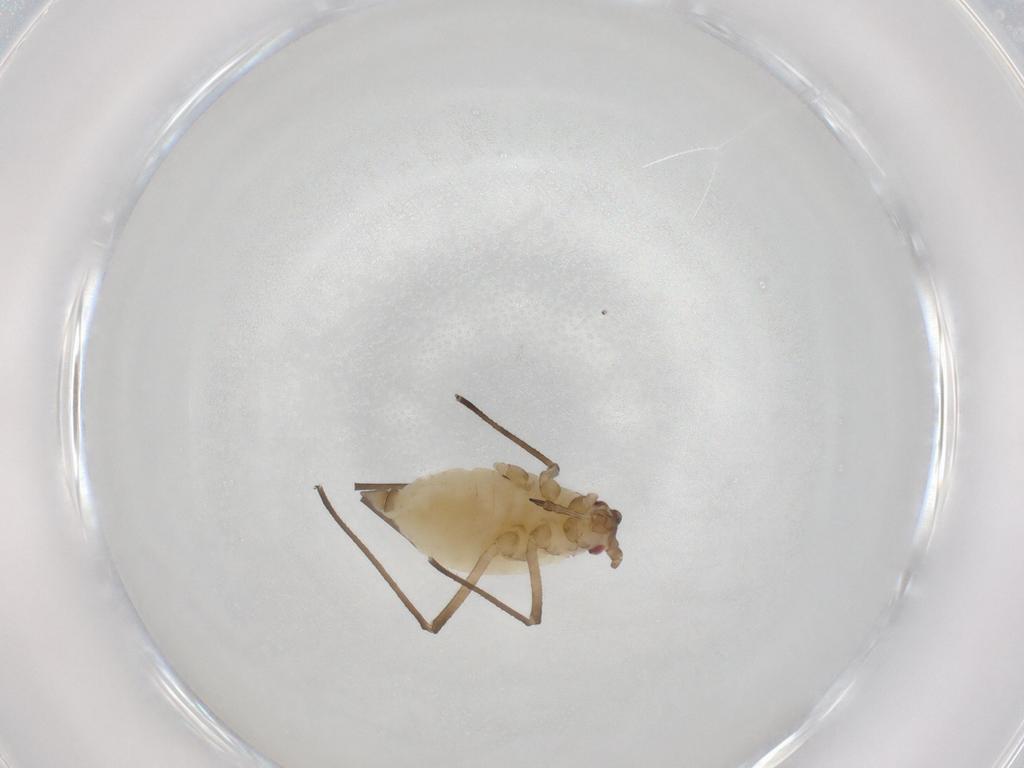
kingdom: Animalia
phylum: Arthropoda
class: Insecta
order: Hemiptera
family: Aphididae
